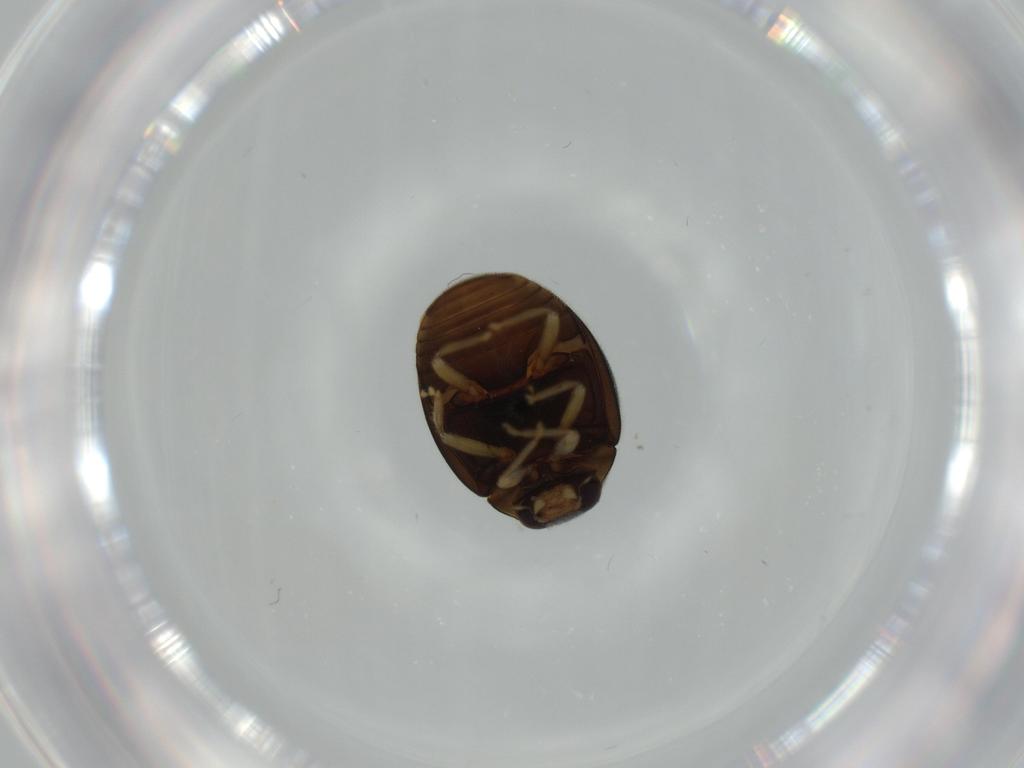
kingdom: Animalia
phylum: Arthropoda
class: Insecta
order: Coleoptera
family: Coccinellidae
